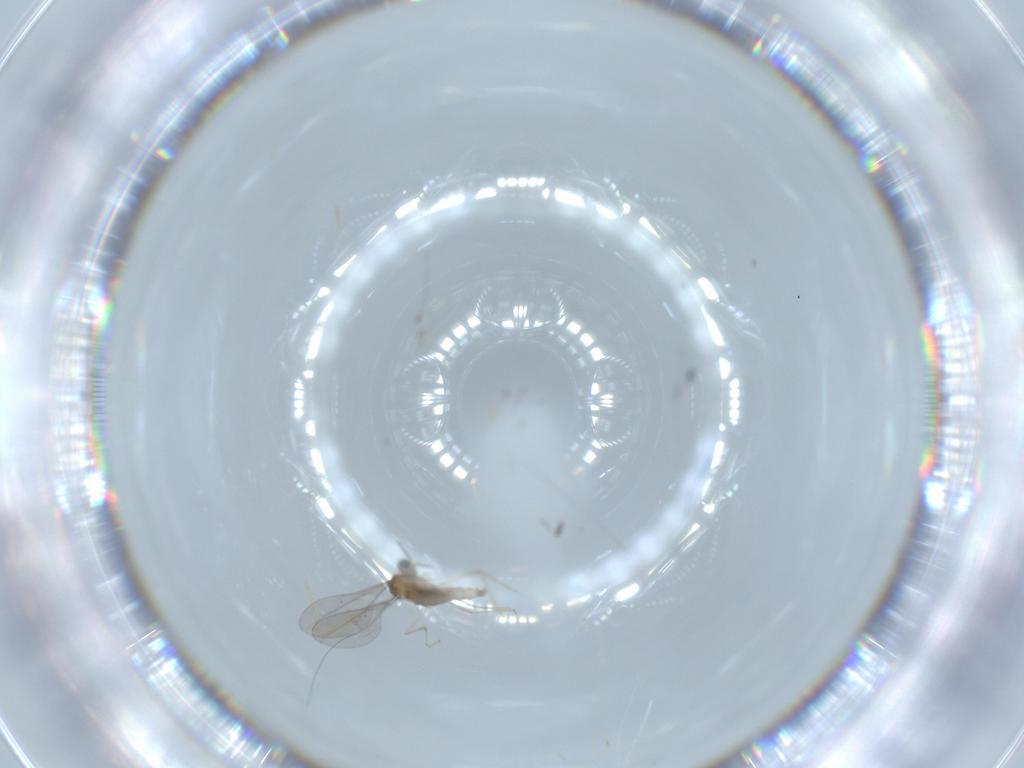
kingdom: Animalia
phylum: Arthropoda
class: Insecta
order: Diptera
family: Cecidomyiidae
